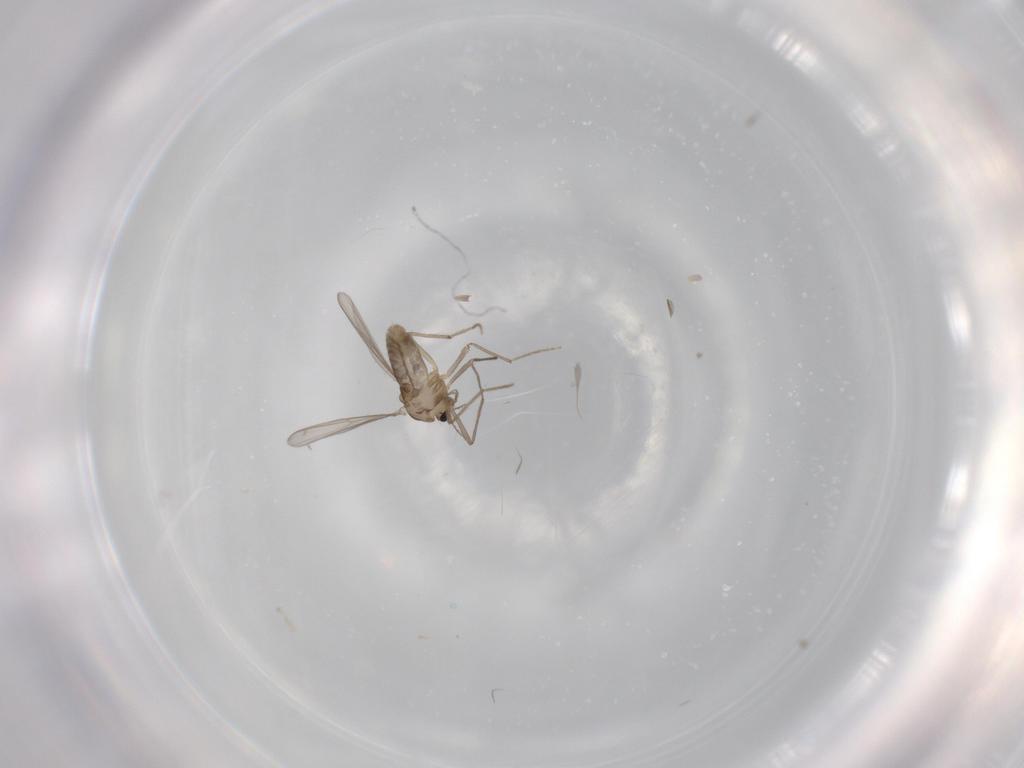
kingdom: Animalia
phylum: Arthropoda
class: Insecta
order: Diptera
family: Chironomidae
